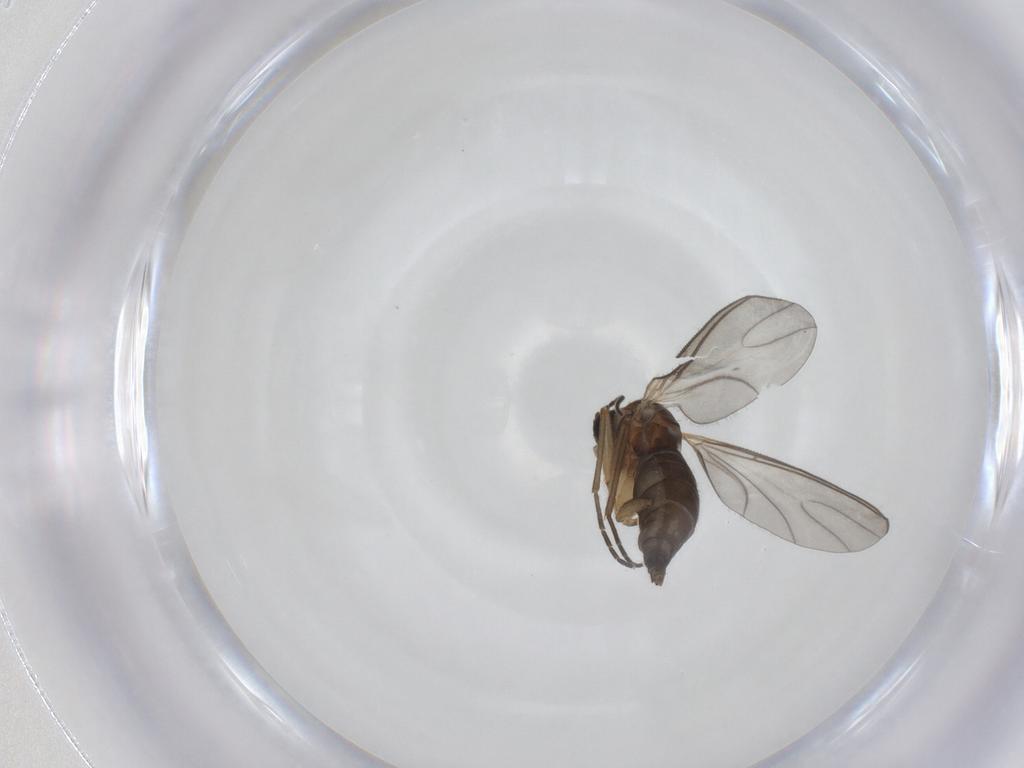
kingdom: Animalia
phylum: Arthropoda
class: Insecta
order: Diptera
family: Sciaridae
